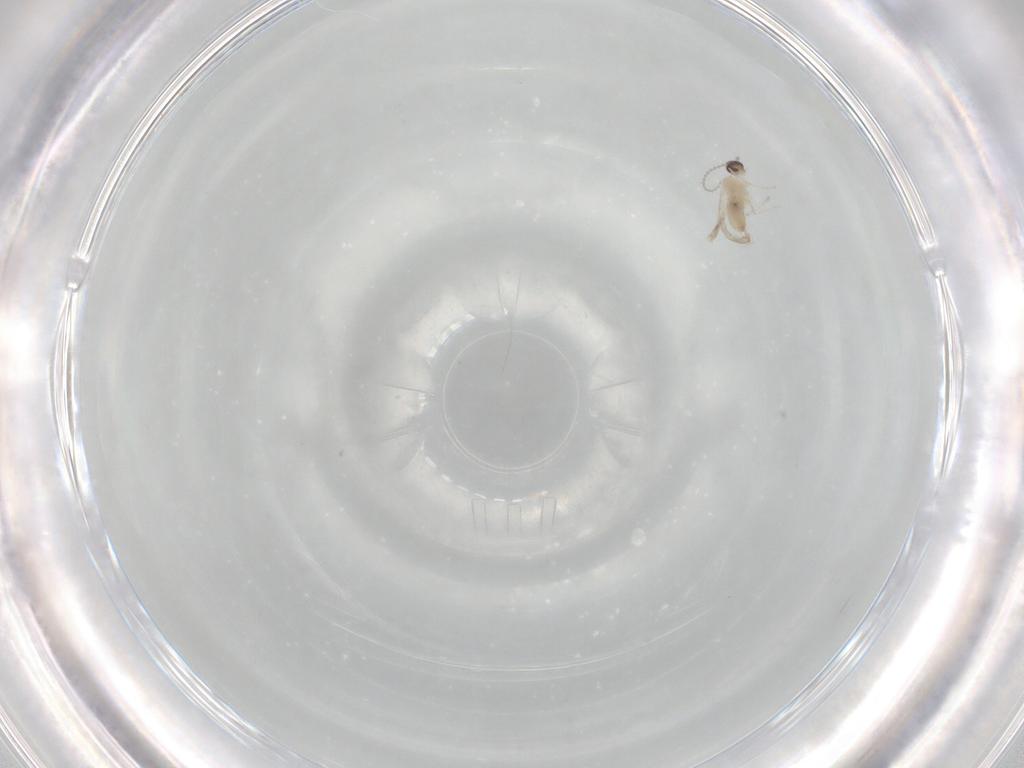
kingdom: Animalia
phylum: Arthropoda
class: Insecta
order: Diptera
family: Cecidomyiidae
